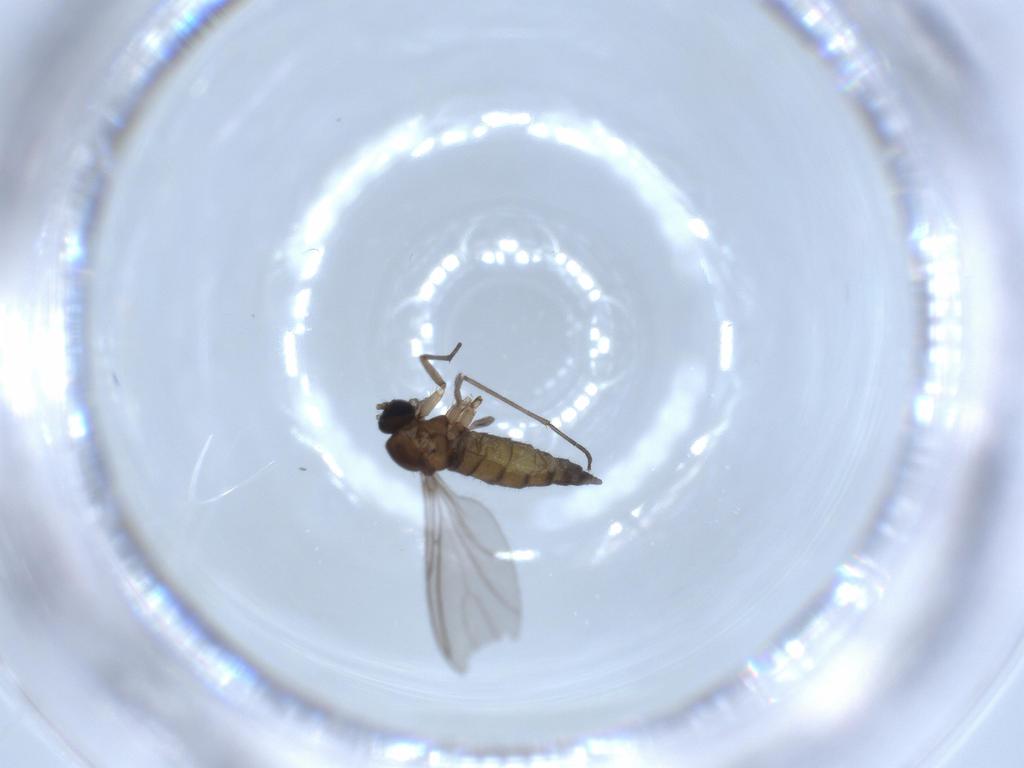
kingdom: Animalia
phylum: Arthropoda
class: Insecta
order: Diptera
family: Sciaridae
